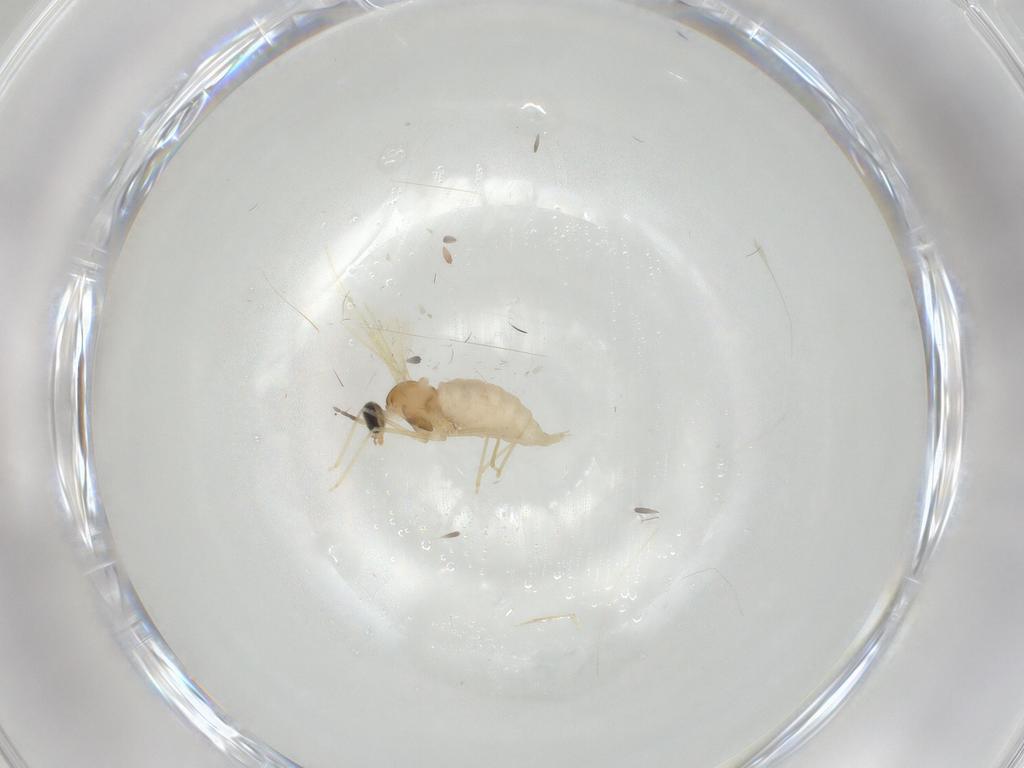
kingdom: Animalia
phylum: Arthropoda
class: Insecta
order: Diptera
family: Cecidomyiidae
